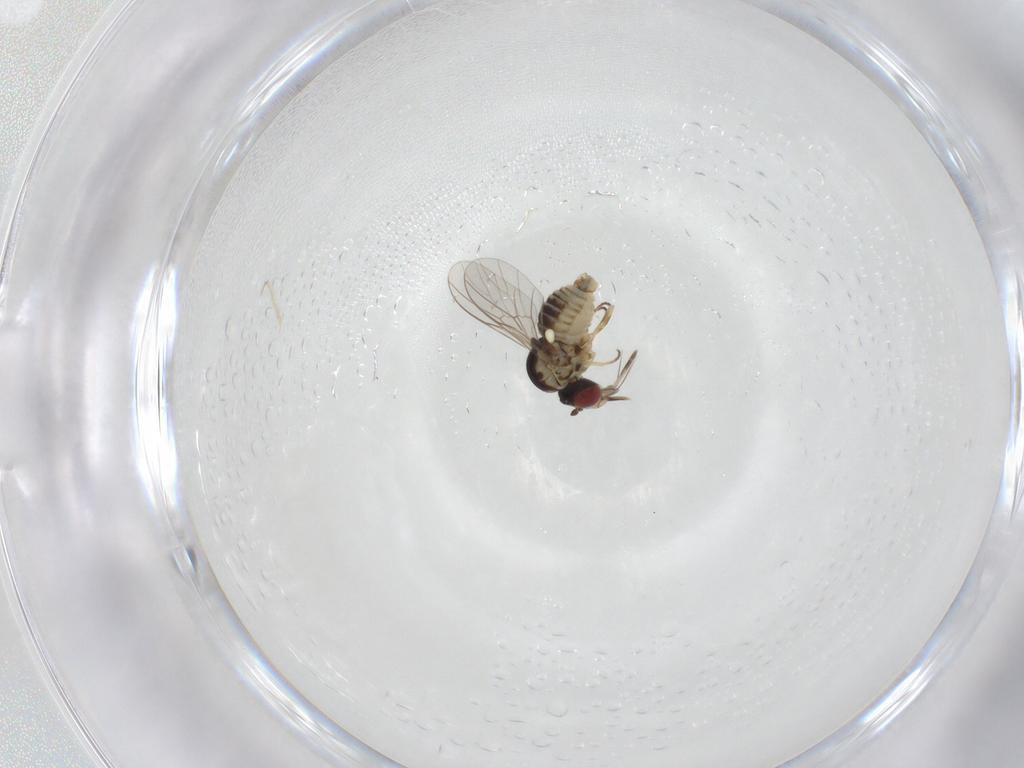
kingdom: Animalia
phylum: Arthropoda
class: Insecta
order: Diptera
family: Mythicomyiidae
